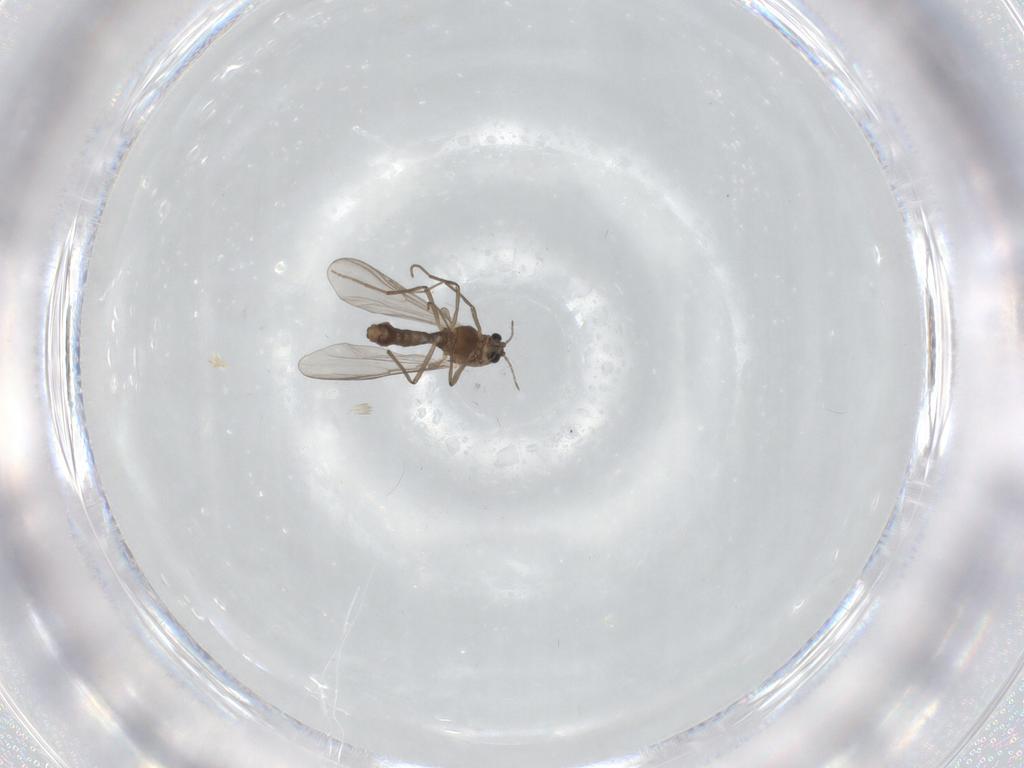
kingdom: Animalia
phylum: Arthropoda
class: Insecta
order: Diptera
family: Chironomidae
